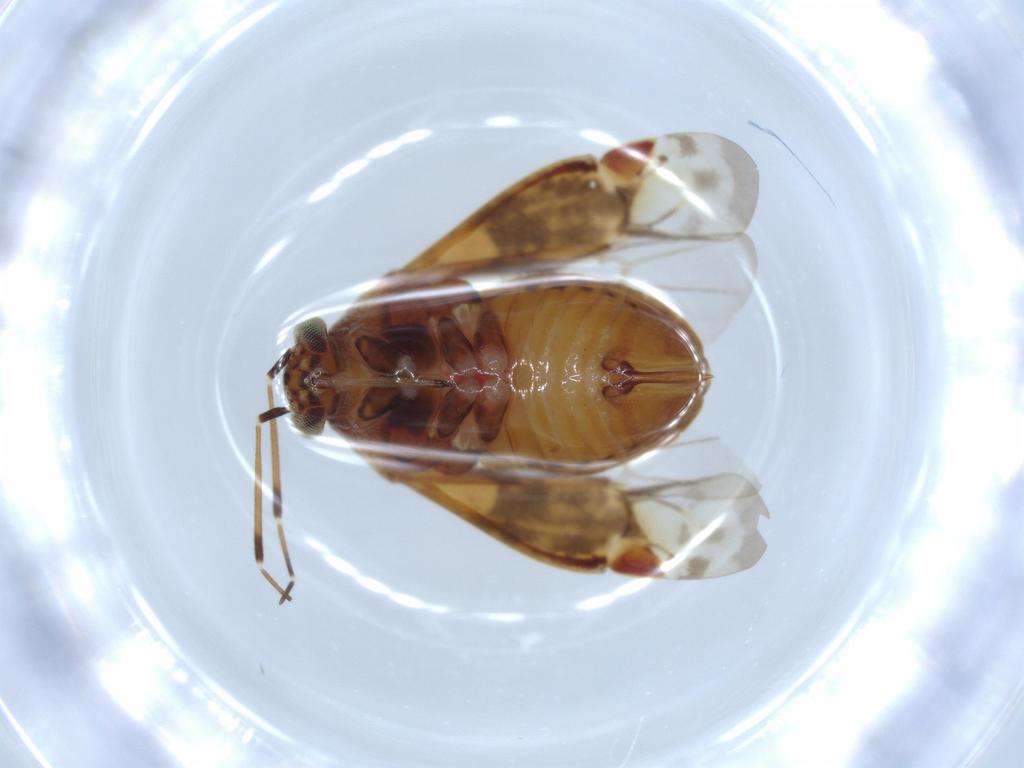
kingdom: Animalia
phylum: Arthropoda
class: Insecta
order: Hemiptera
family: Miridae
